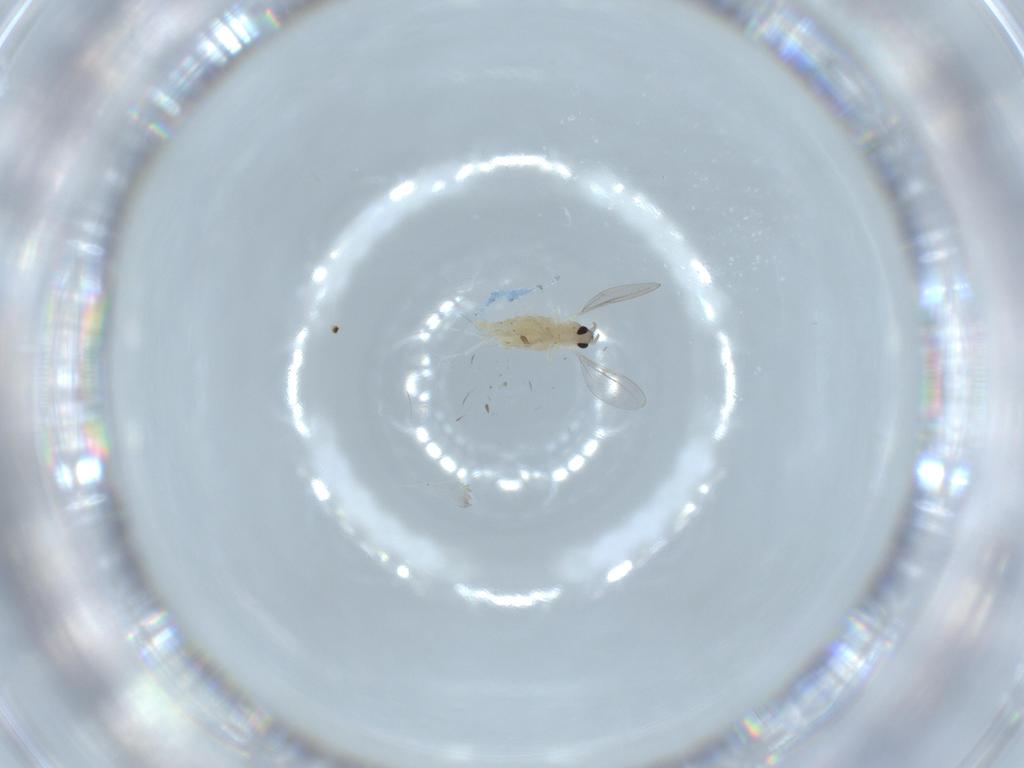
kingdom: Animalia
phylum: Arthropoda
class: Insecta
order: Diptera
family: Cecidomyiidae
